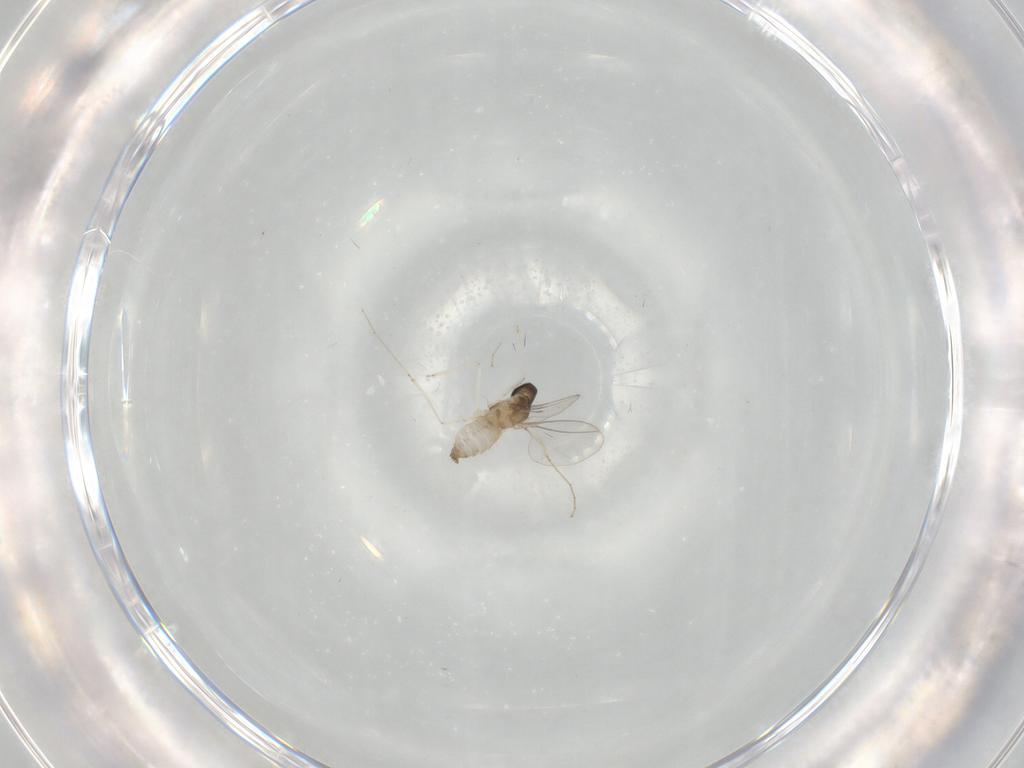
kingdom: Animalia
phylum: Arthropoda
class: Insecta
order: Diptera
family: Cecidomyiidae
